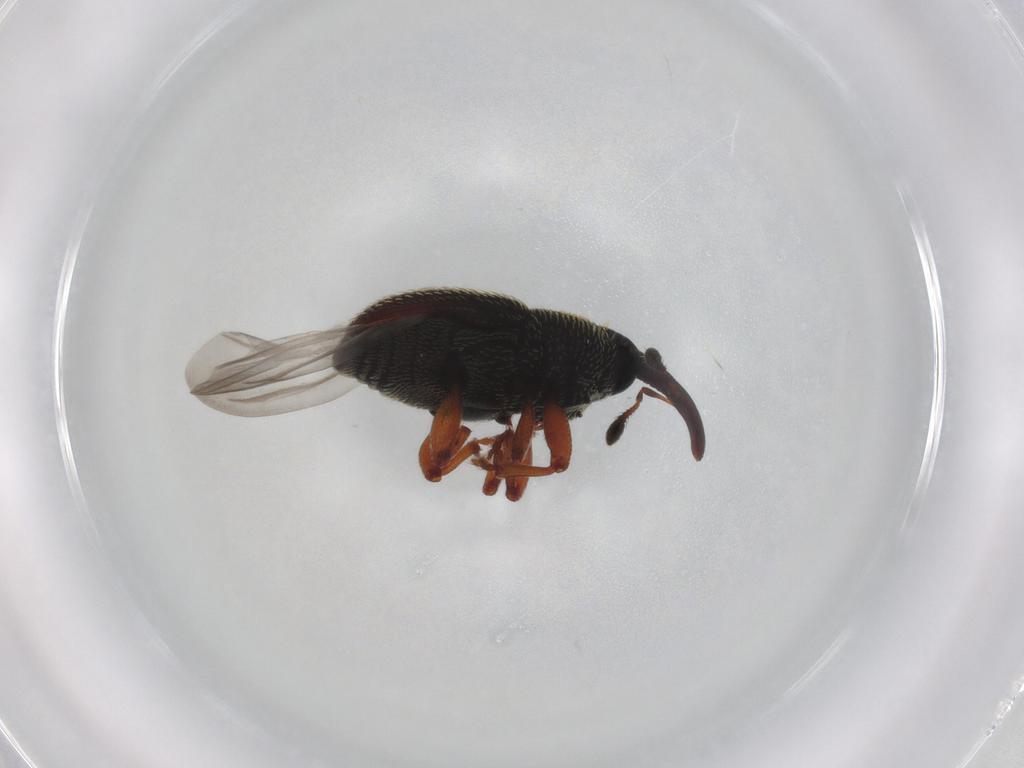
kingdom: Animalia
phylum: Arthropoda
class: Insecta
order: Coleoptera
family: Curculionidae
